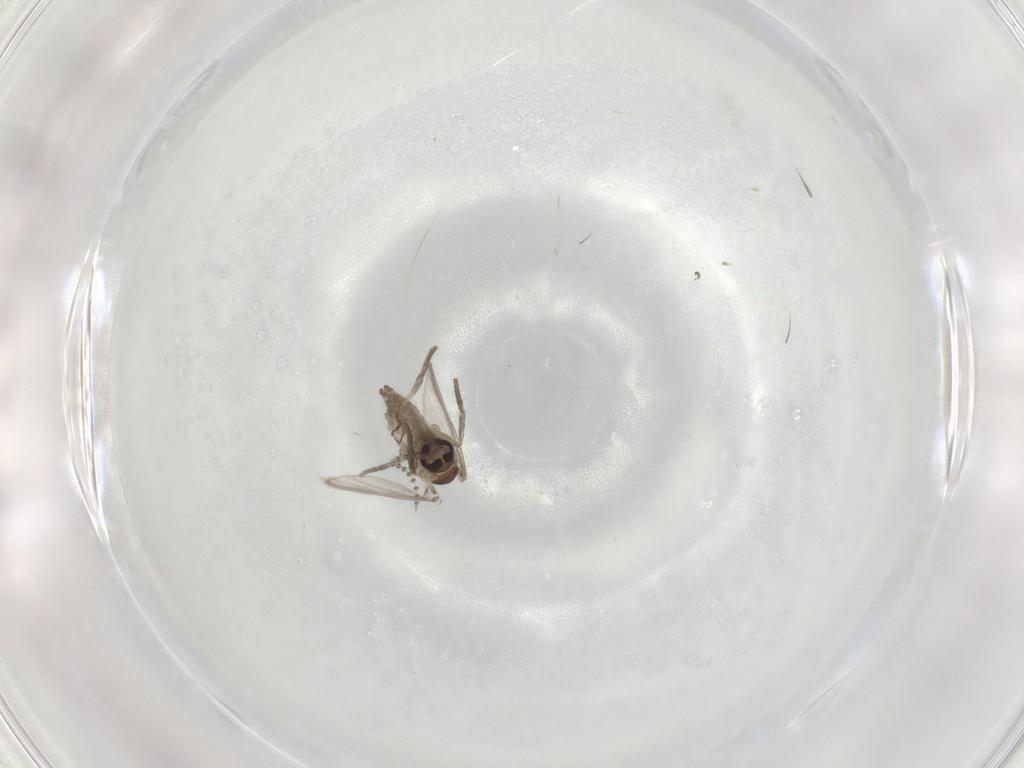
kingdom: Animalia
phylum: Arthropoda
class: Insecta
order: Diptera
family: Psychodidae
